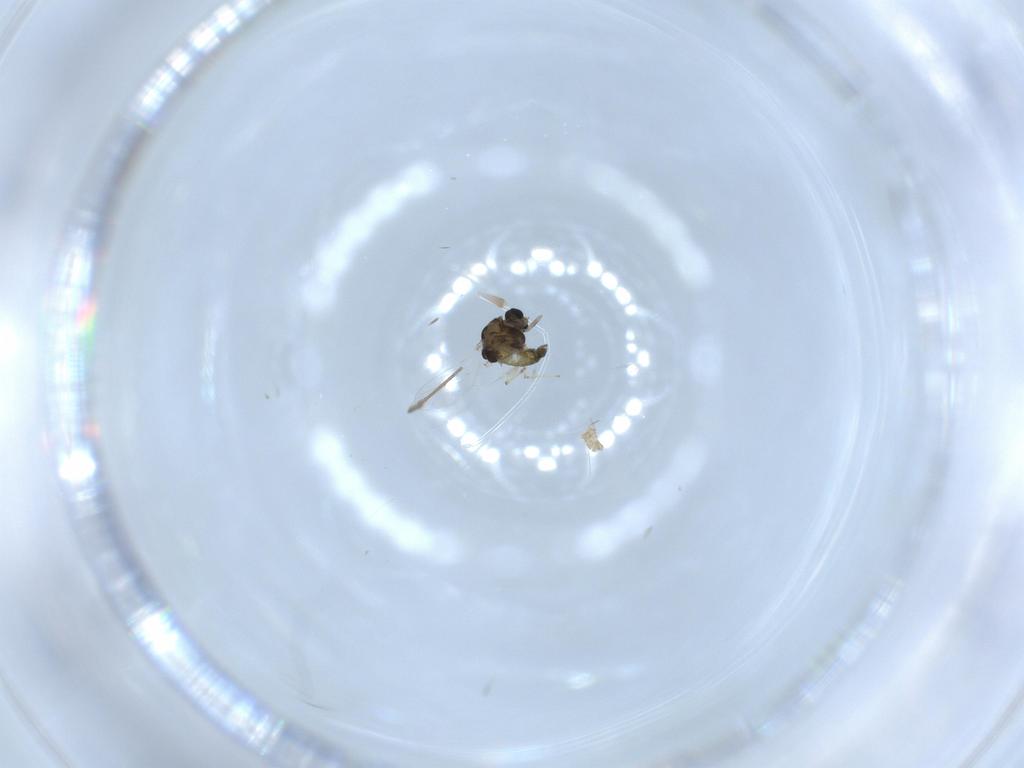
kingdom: Animalia
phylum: Arthropoda
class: Insecta
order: Diptera
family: Chironomidae
